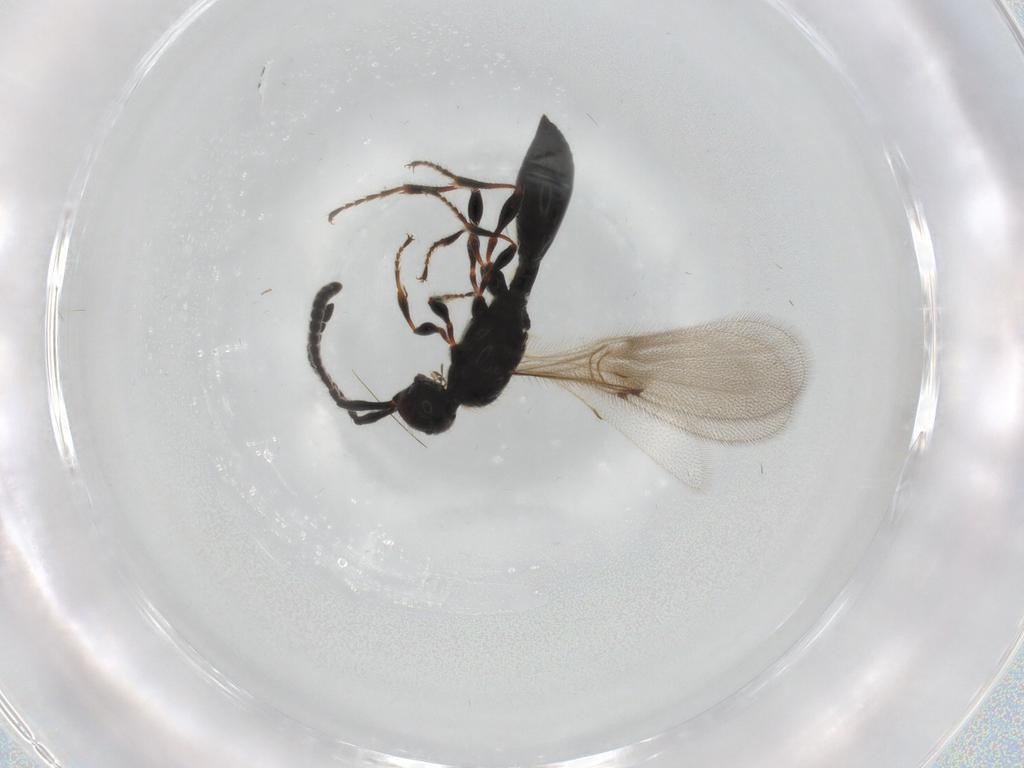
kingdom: Animalia
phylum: Arthropoda
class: Insecta
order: Hymenoptera
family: Diapriidae
